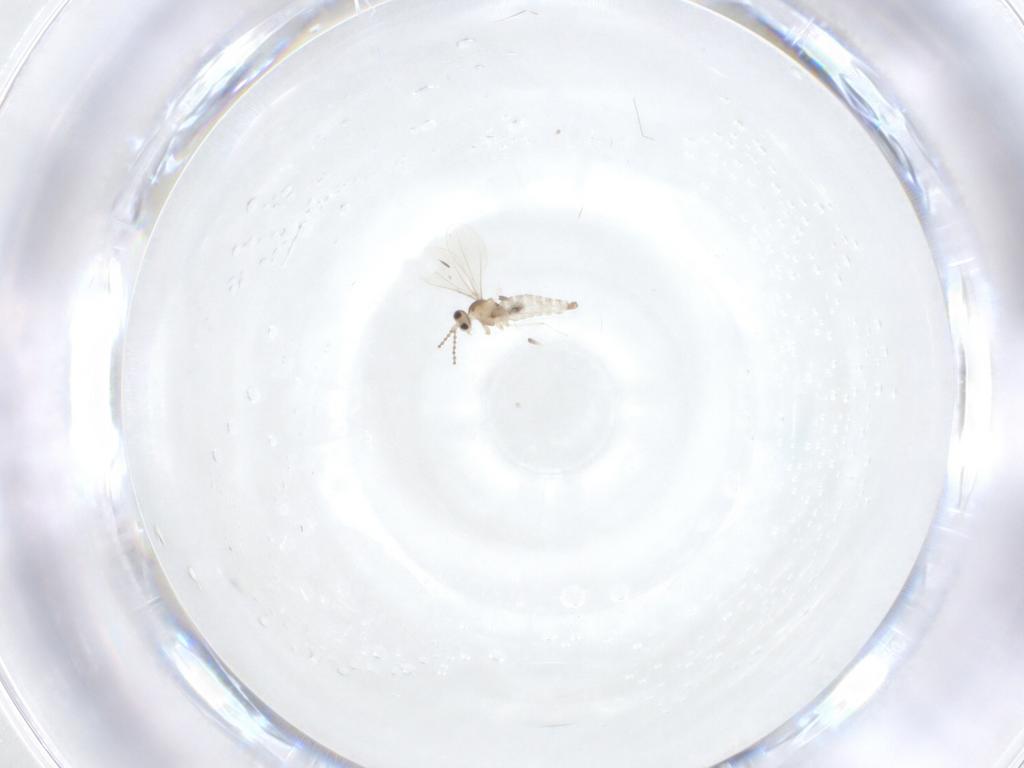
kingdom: Animalia
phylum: Arthropoda
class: Insecta
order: Diptera
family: Cecidomyiidae
